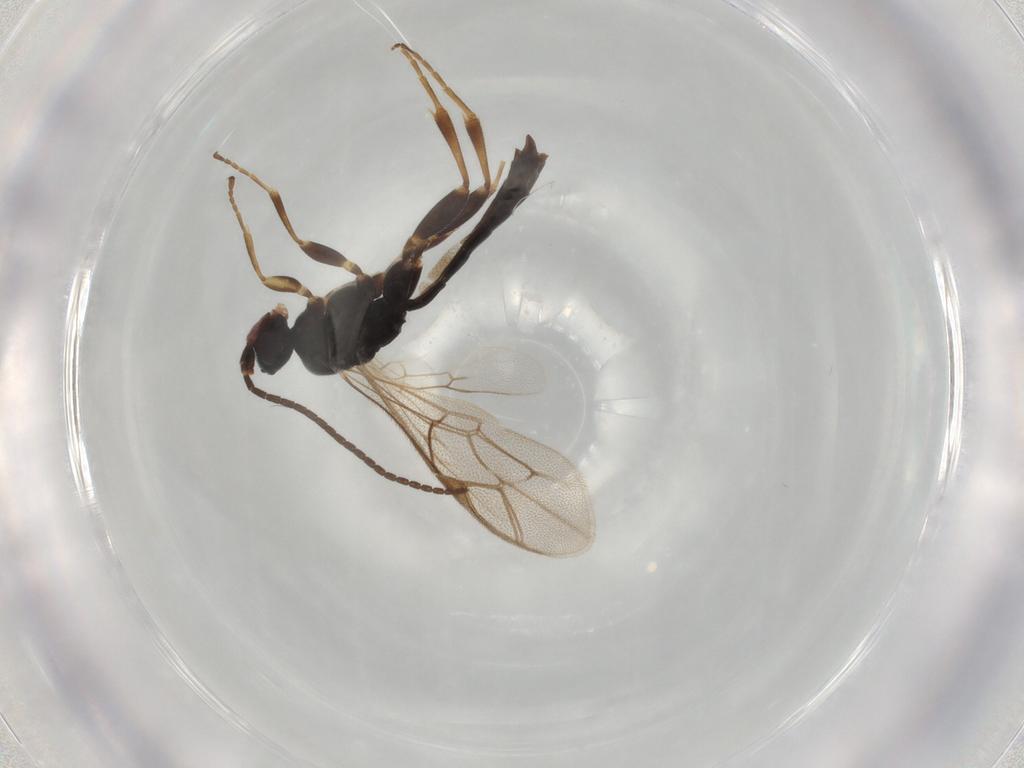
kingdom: Animalia
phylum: Arthropoda
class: Insecta
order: Hymenoptera
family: Ichneumonidae
